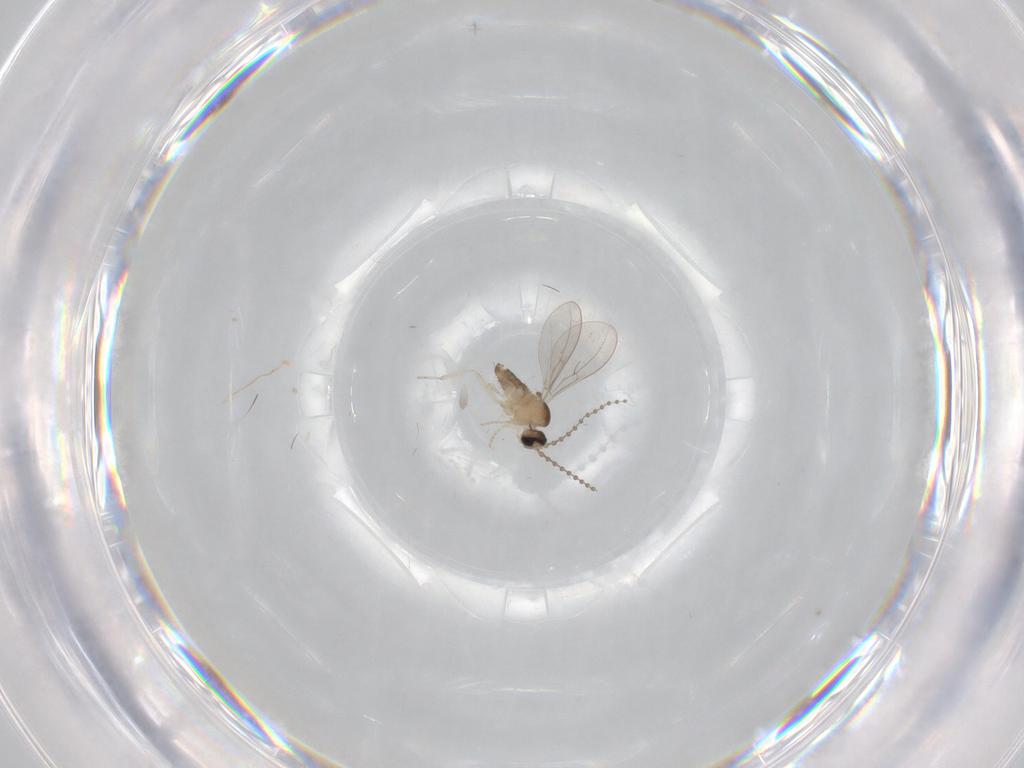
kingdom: Animalia
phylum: Arthropoda
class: Insecta
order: Diptera
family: Cecidomyiidae
